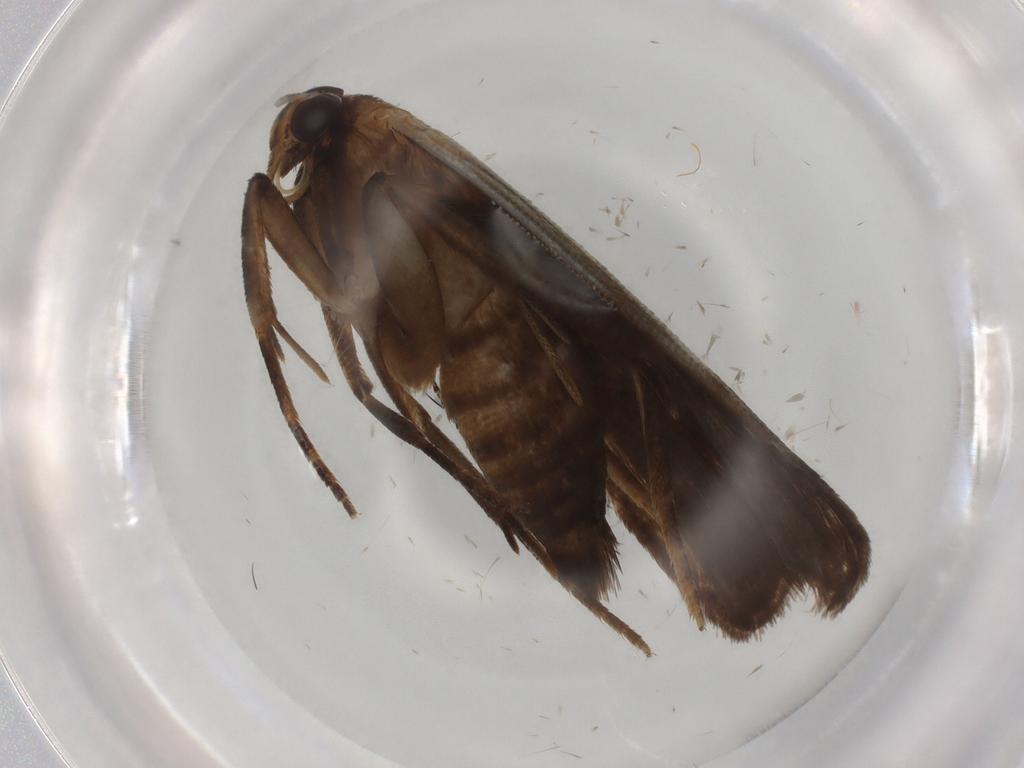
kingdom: Animalia
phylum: Arthropoda
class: Insecta
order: Lepidoptera
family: Gelechiidae
